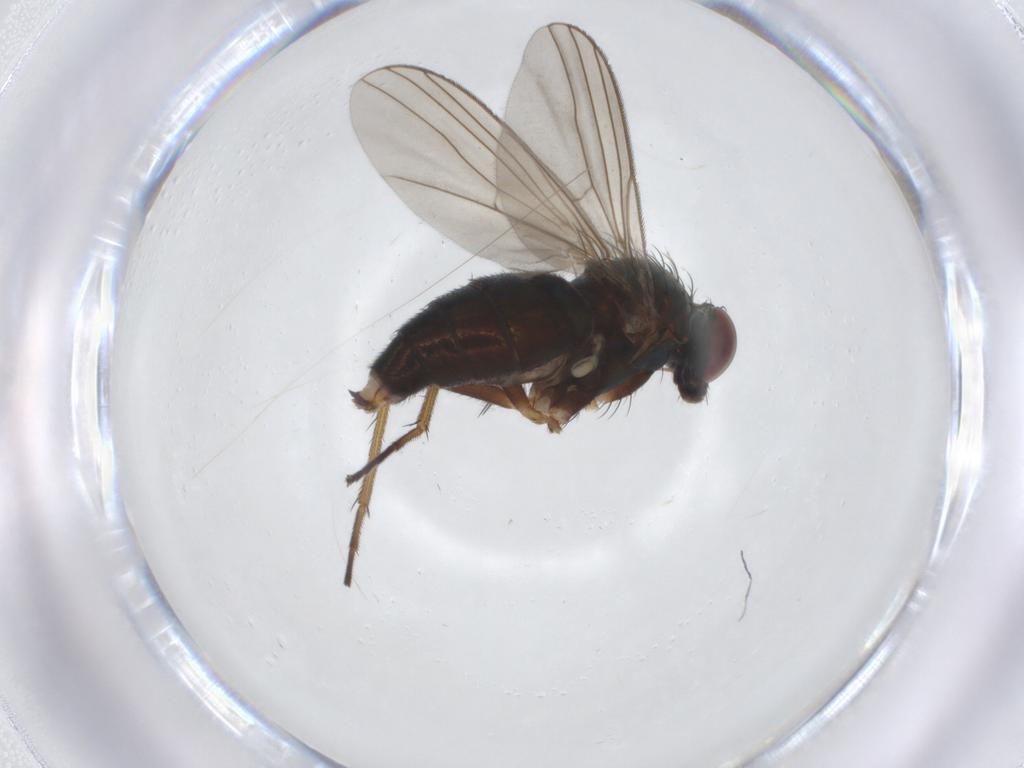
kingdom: Animalia
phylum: Arthropoda
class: Insecta
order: Diptera
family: Dolichopodidae
